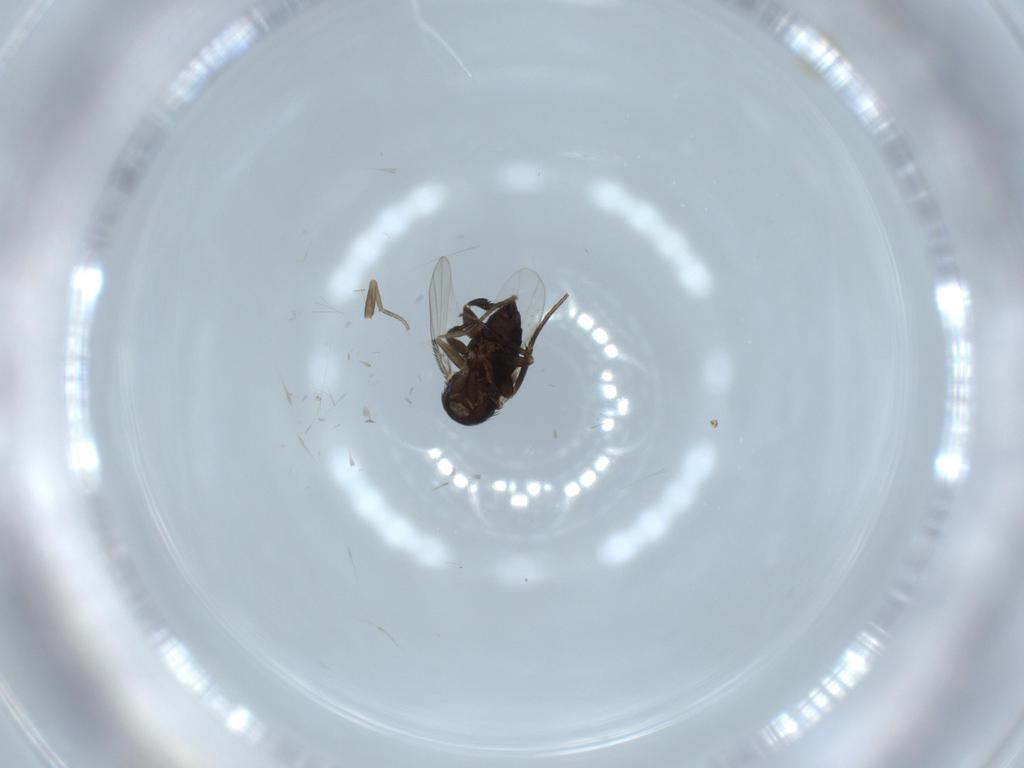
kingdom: Animalia
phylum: Arthropoda
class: Insecta
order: Diptera
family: Phoridae
